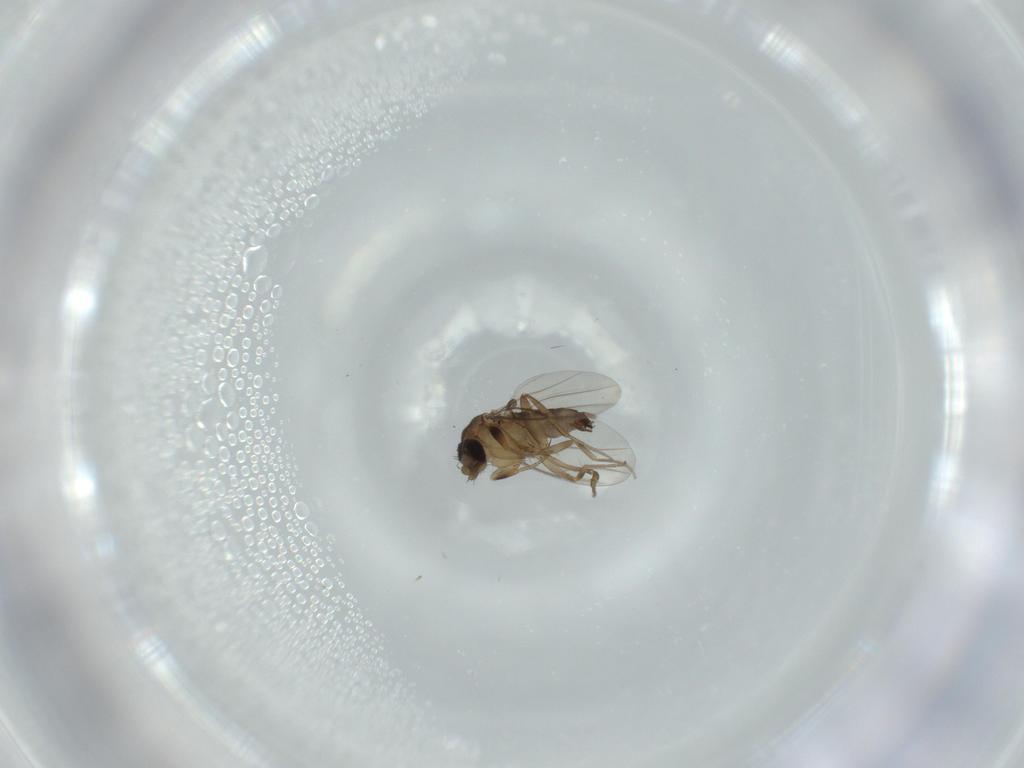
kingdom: Animalia
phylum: Arthropoda
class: Insecta
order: Diptera
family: Phoridae
